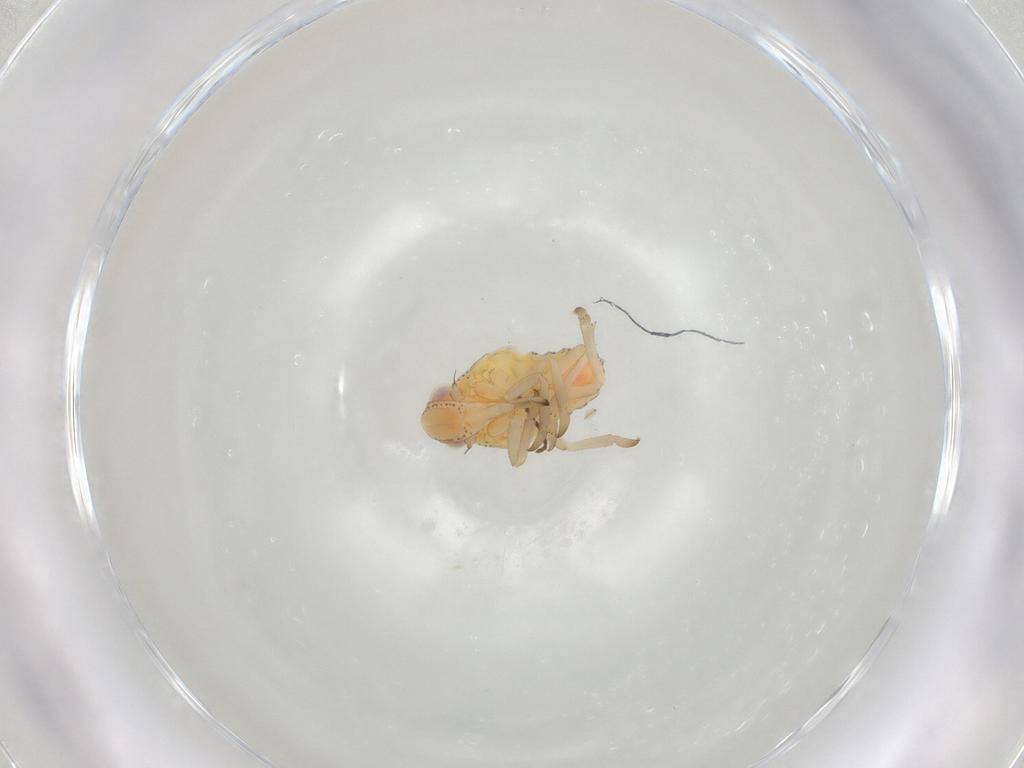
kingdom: Animalia
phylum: Arthropoda
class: Insecta
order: Hemiptera
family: Tropiduchidae
